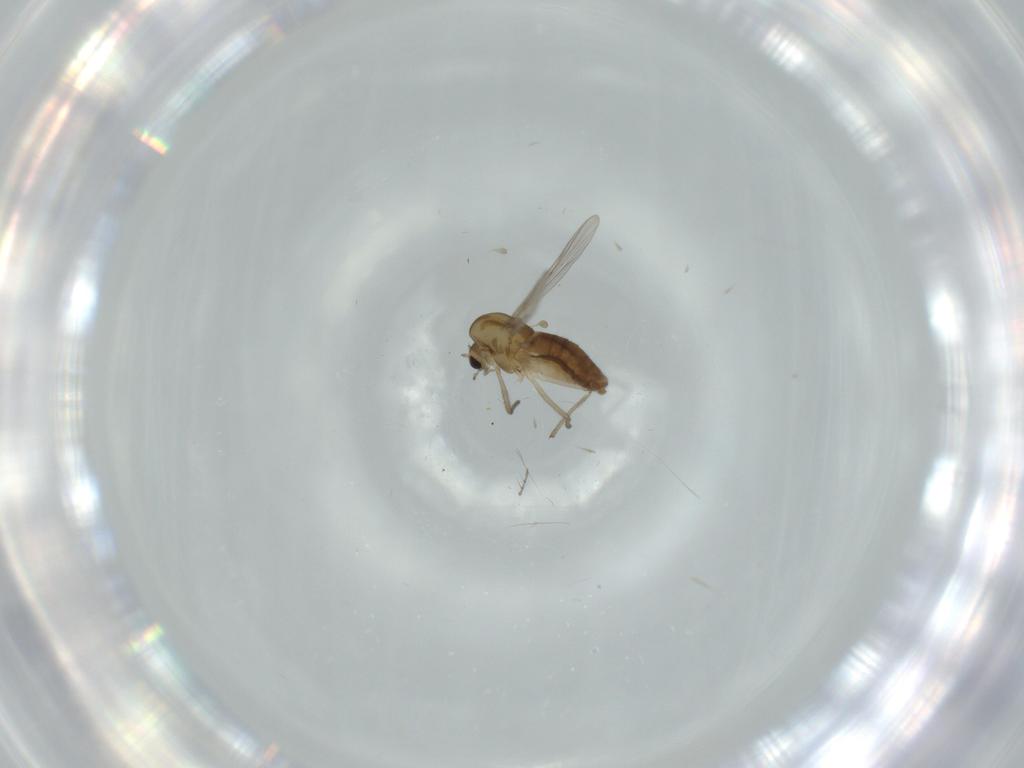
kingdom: Animalia
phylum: Arthropoda
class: Insecta
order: Diptera
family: Chironomidae
